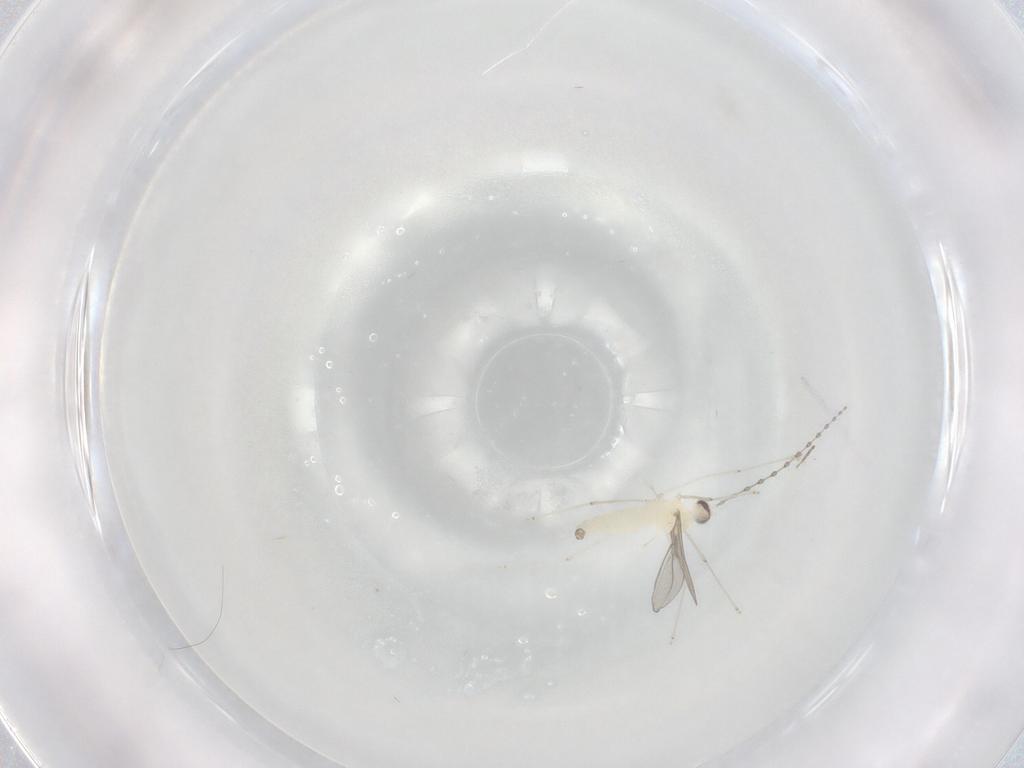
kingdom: Animalia
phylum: Arthropoda
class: Insecta
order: Diptera
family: Cecidomyiidae
